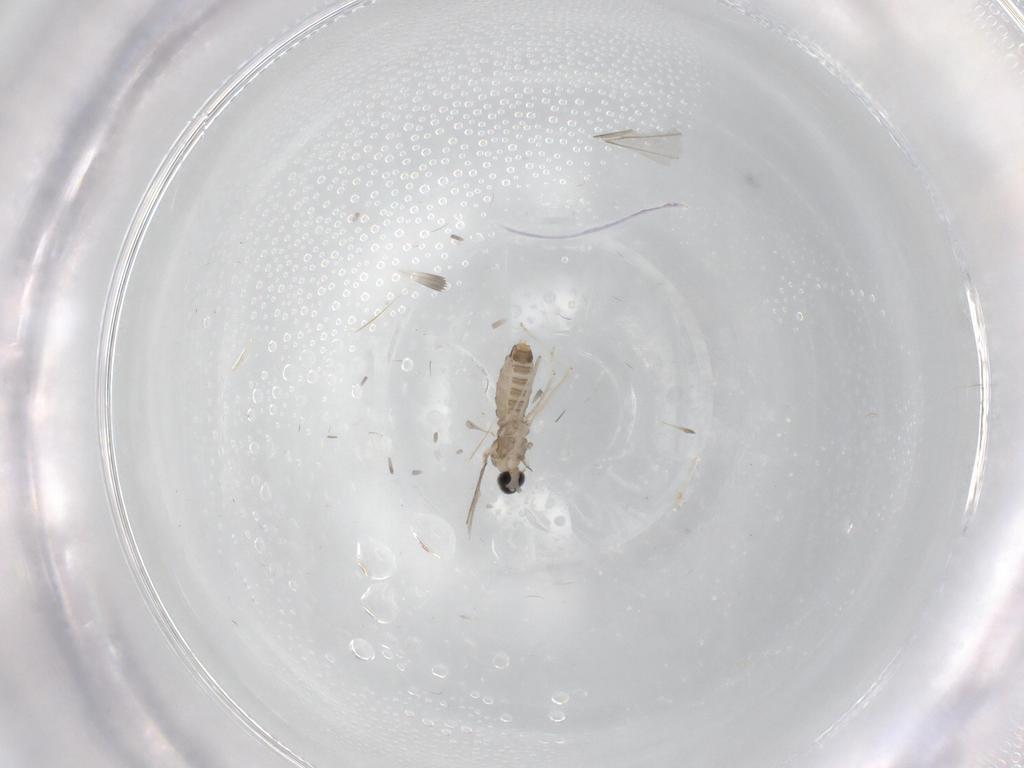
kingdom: Animalia
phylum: Arthropoda
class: Insecta
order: Diptera
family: Cecidomyiidae
